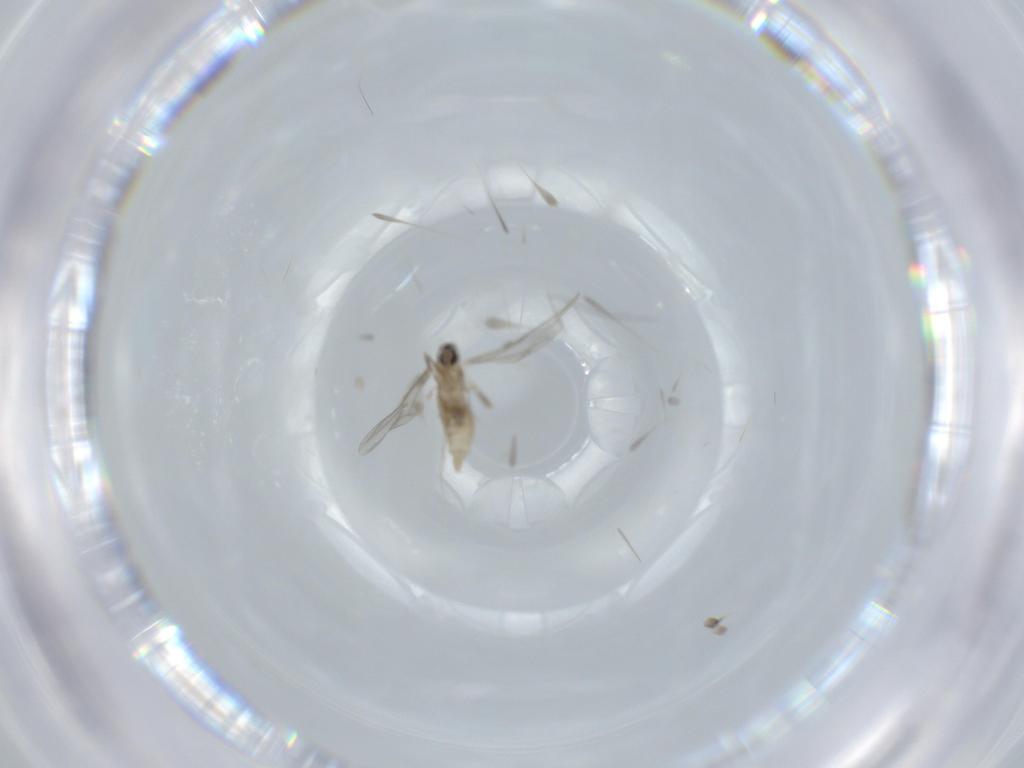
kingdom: Animalia
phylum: Arthropoda
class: Insecta
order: Diptera
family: Cecidomyiidae
